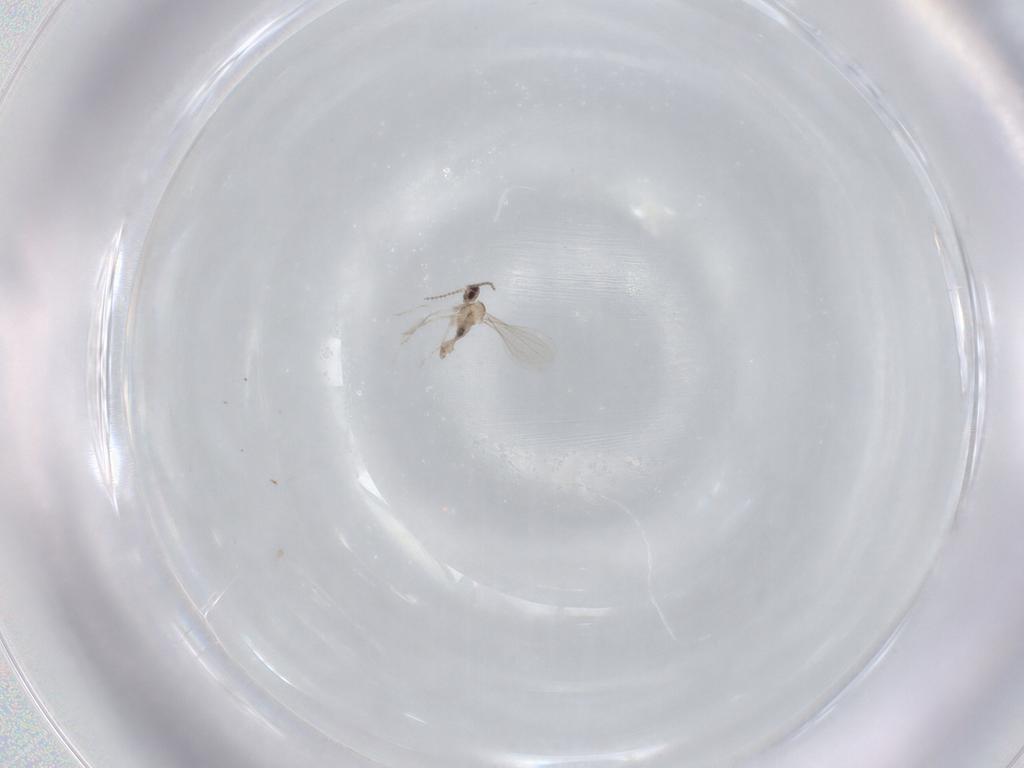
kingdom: Animalia
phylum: Arthropoda
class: Insecta
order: Diptera
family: Cecidomyiidae
